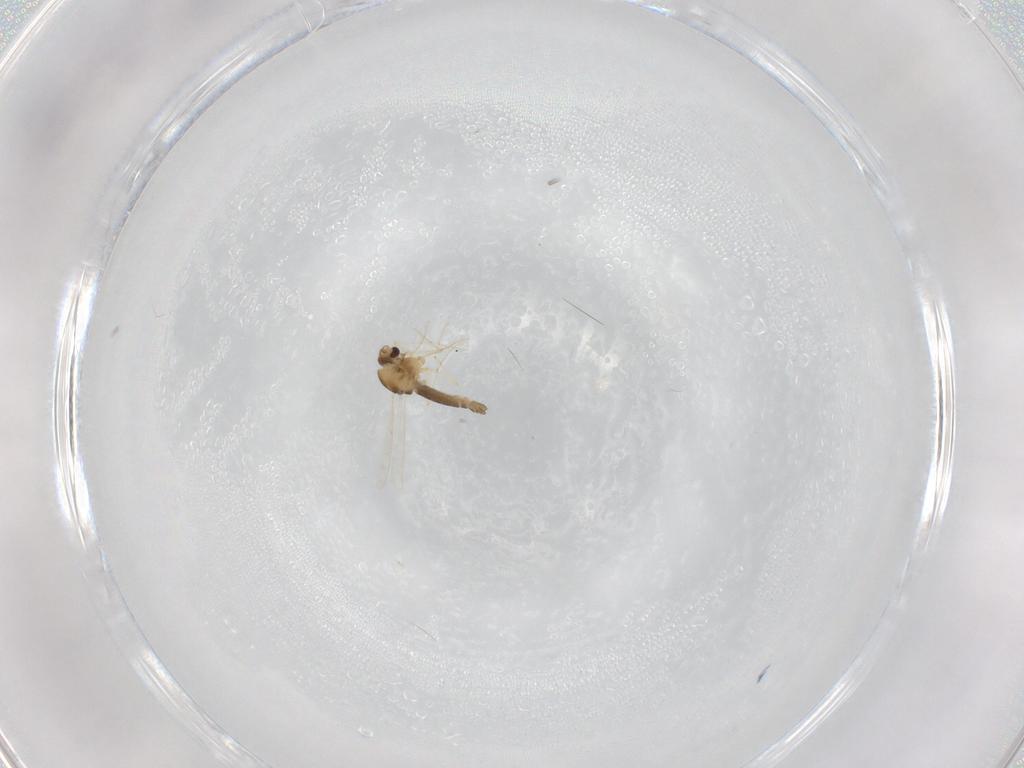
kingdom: Animalia
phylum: Arthropoda
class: Insecta
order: Diptera
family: Chironomidae
